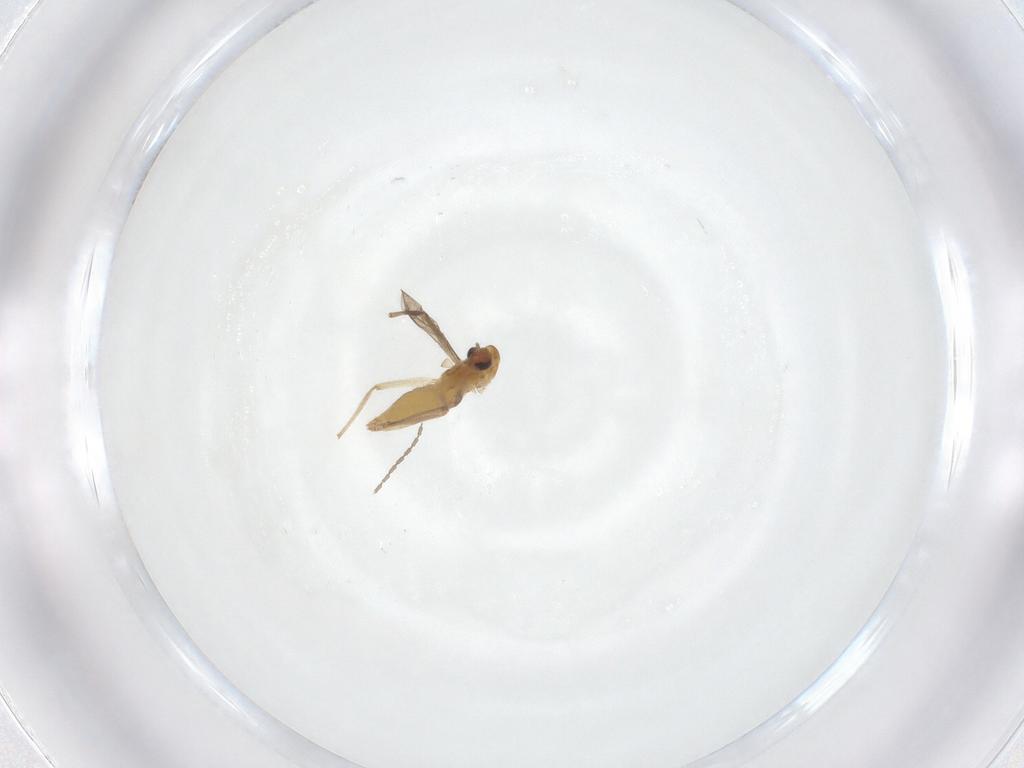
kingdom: Animalia
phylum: Arthropoda
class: Insecta
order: Diptera
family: Chironomidae
